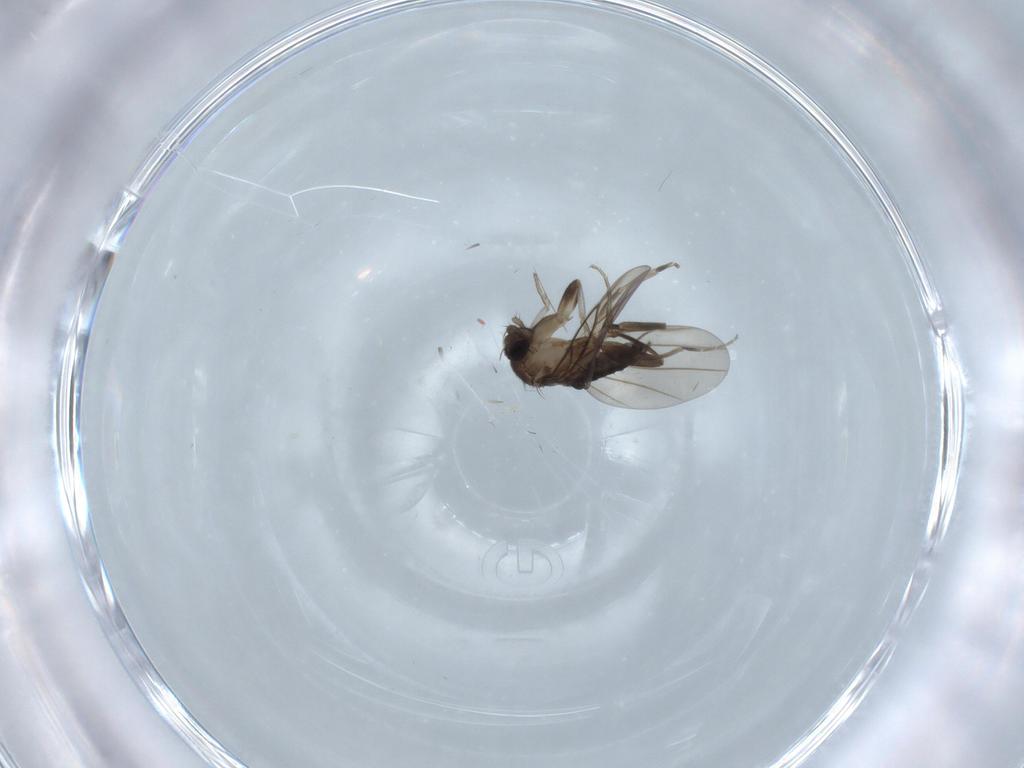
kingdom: Animalia
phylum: Arthropoda
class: Insecta
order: Diptera
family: Phoridae
